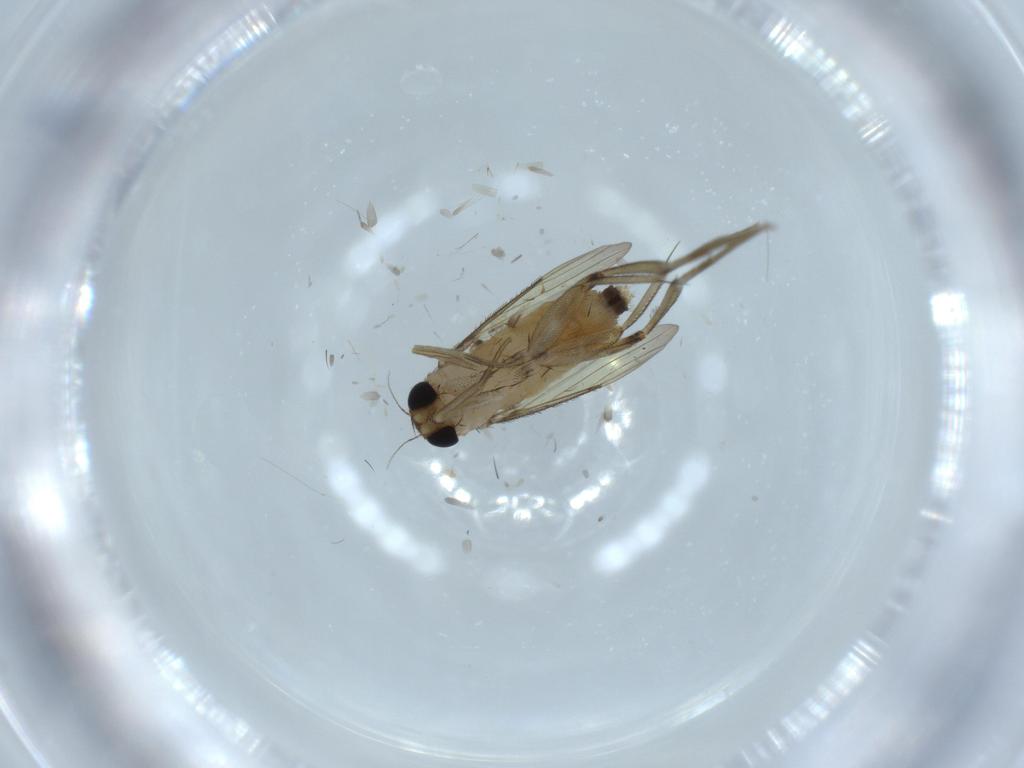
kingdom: Animalia
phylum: Arthropoda
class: Insecta
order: Diptera
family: Phoridae
